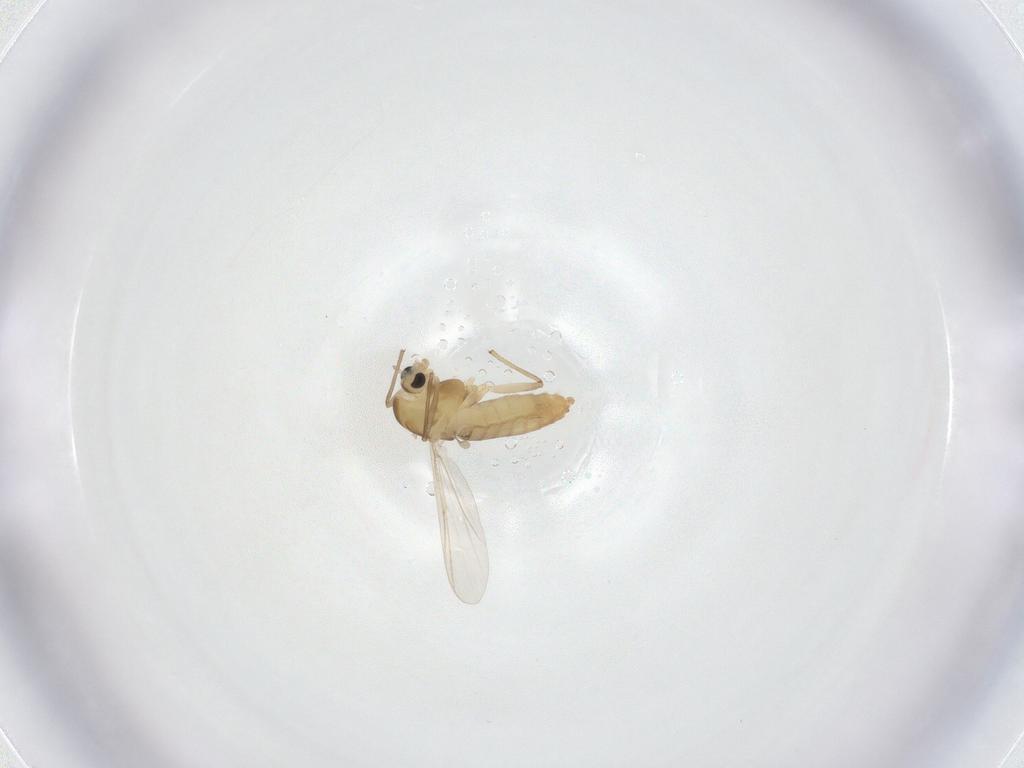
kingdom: Animalia
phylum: Arthropoda
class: Insecta
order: Diptera
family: Chironomidae
